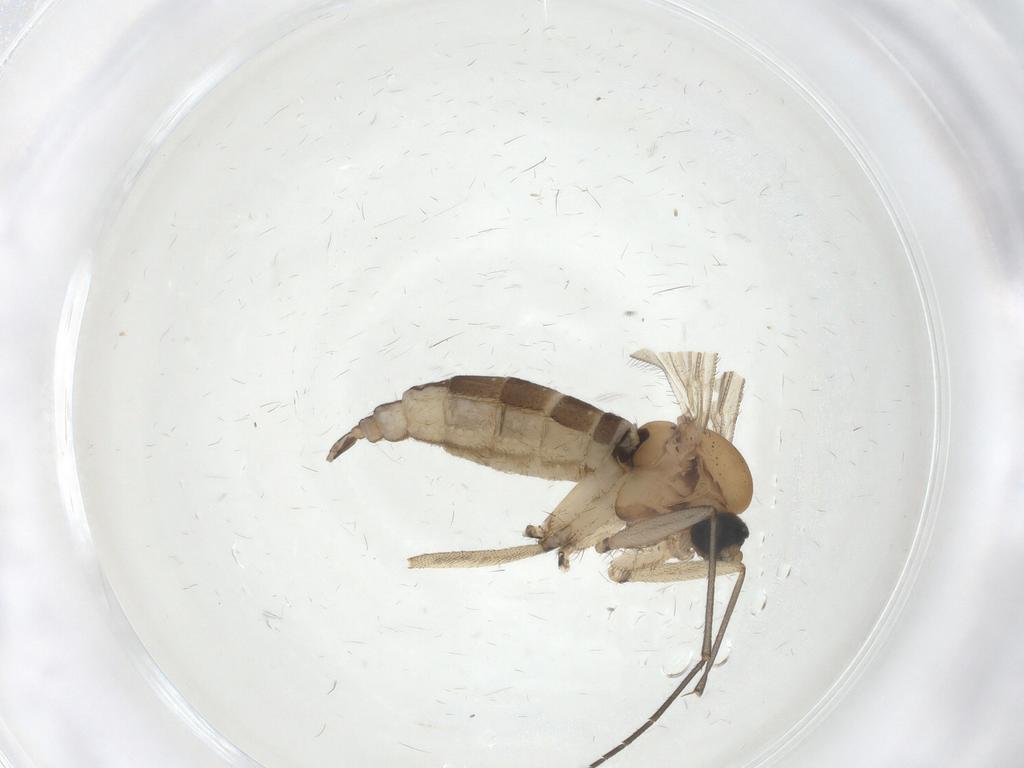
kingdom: Animalia
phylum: Arthropoda
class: Insecta
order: Diptera
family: Sciaridae
